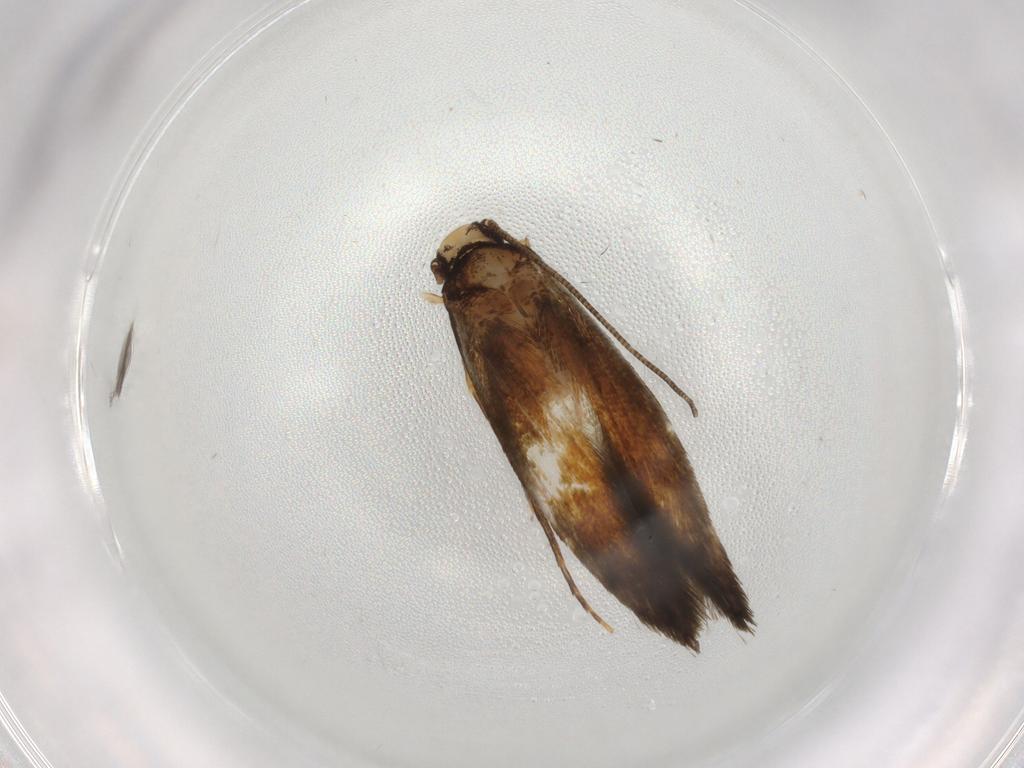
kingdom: Animalia
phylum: Arthropoda
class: Insecta
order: Lepidoptera
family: Tineidae
